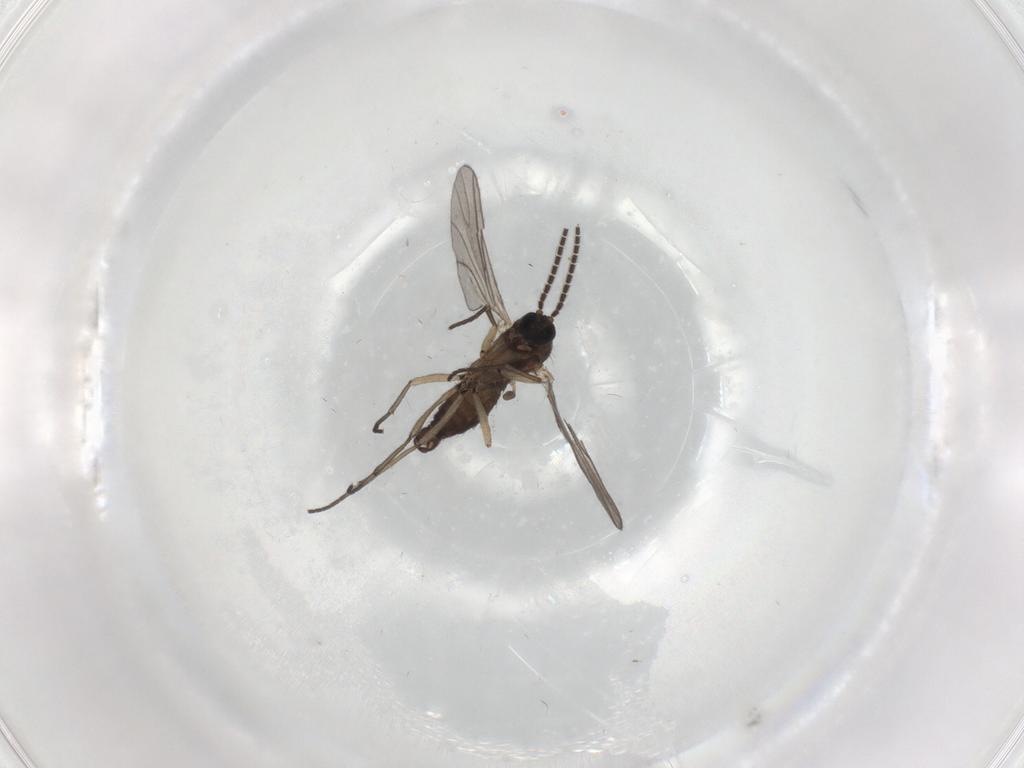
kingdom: Animalia
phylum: Arthropoda
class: Insecta
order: Diptera
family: Sciaridae
